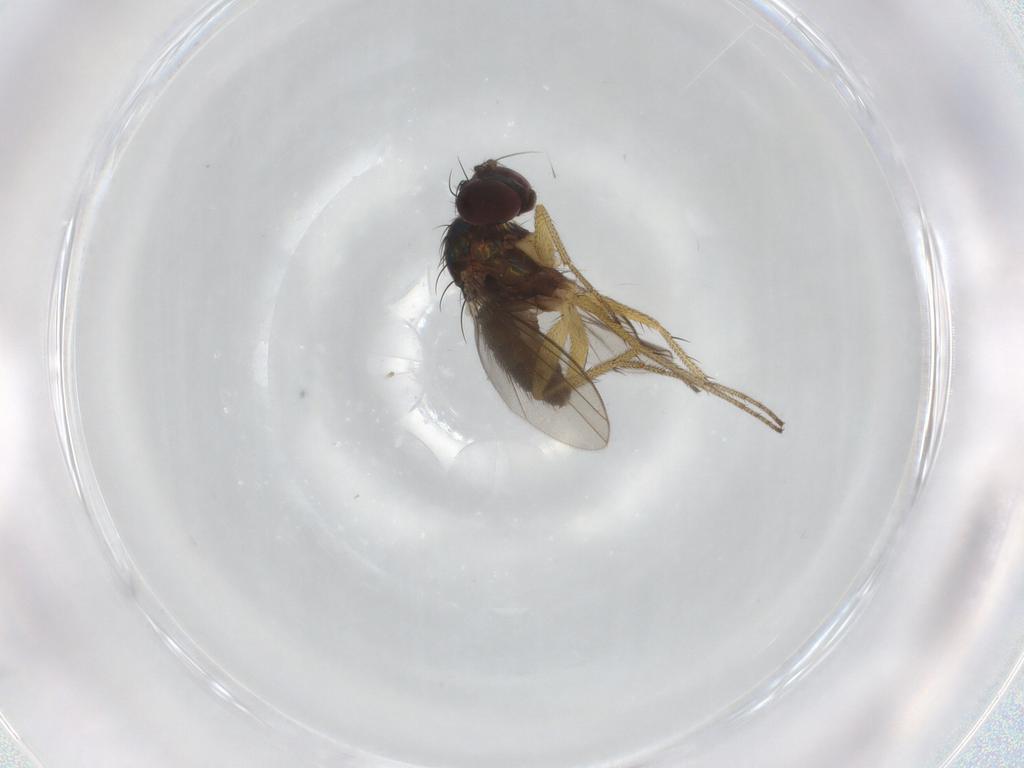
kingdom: Animalia
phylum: Arthropoda
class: Insecta
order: Diptera
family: Dolichopodidae
